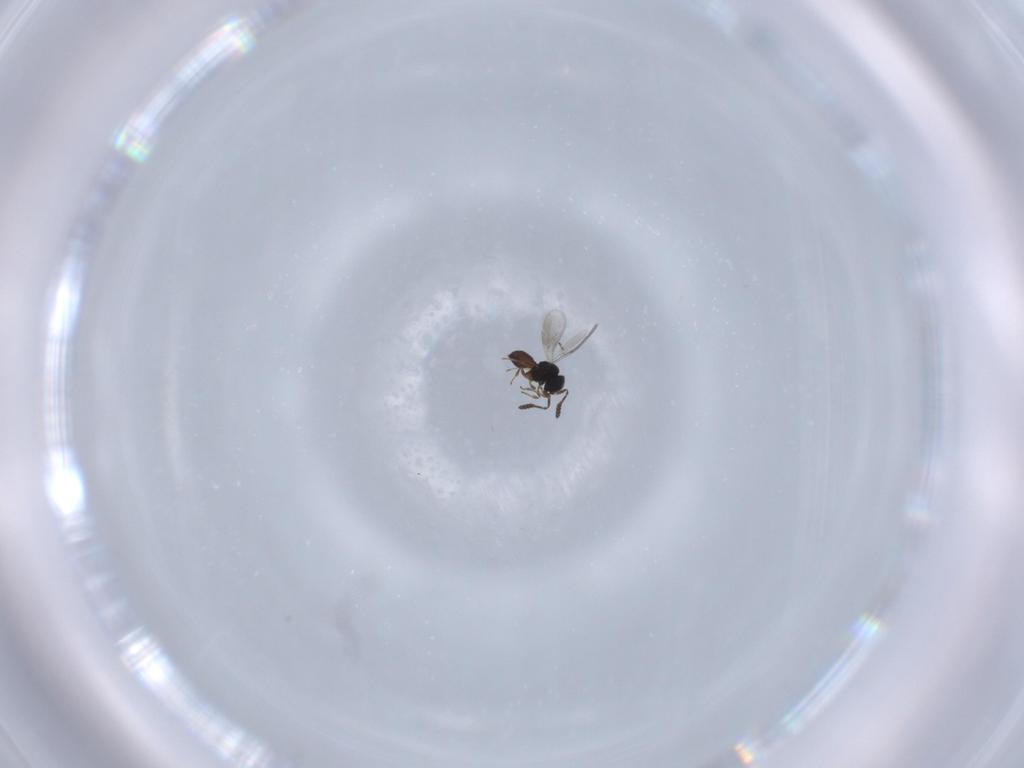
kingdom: Animalia
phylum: Arthropoda
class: Insecta
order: Hymenoptera
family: Scelionidae
